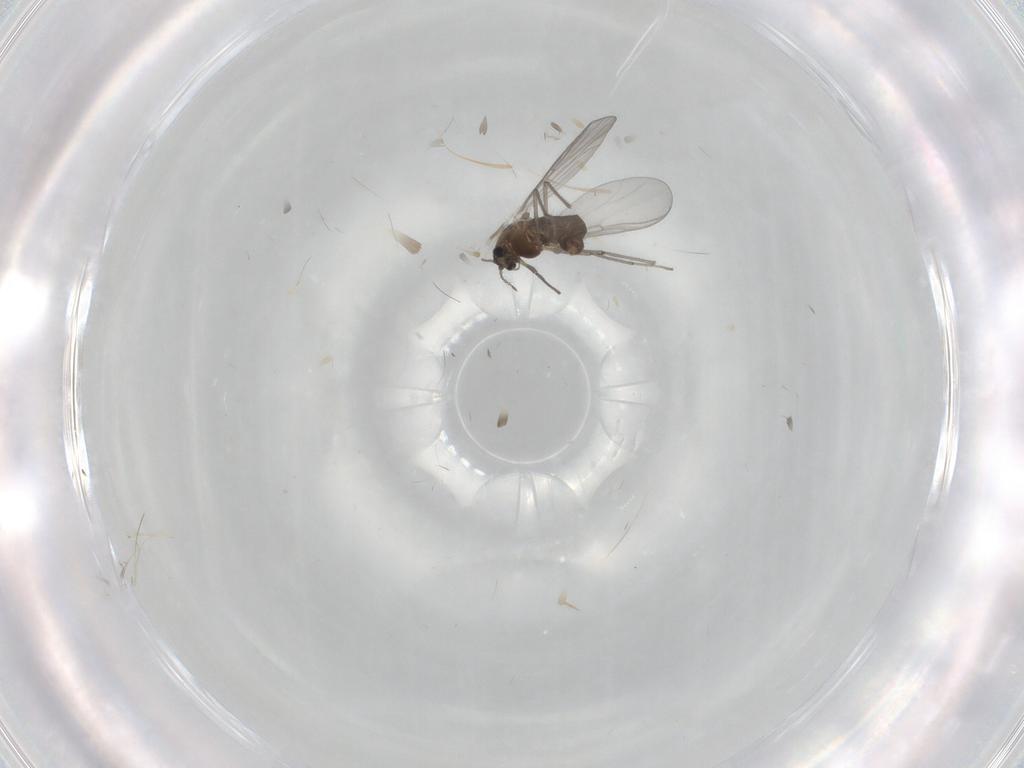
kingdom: Animalia
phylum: Arthropoda
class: Insecta
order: Diptera
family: Chironomidae
